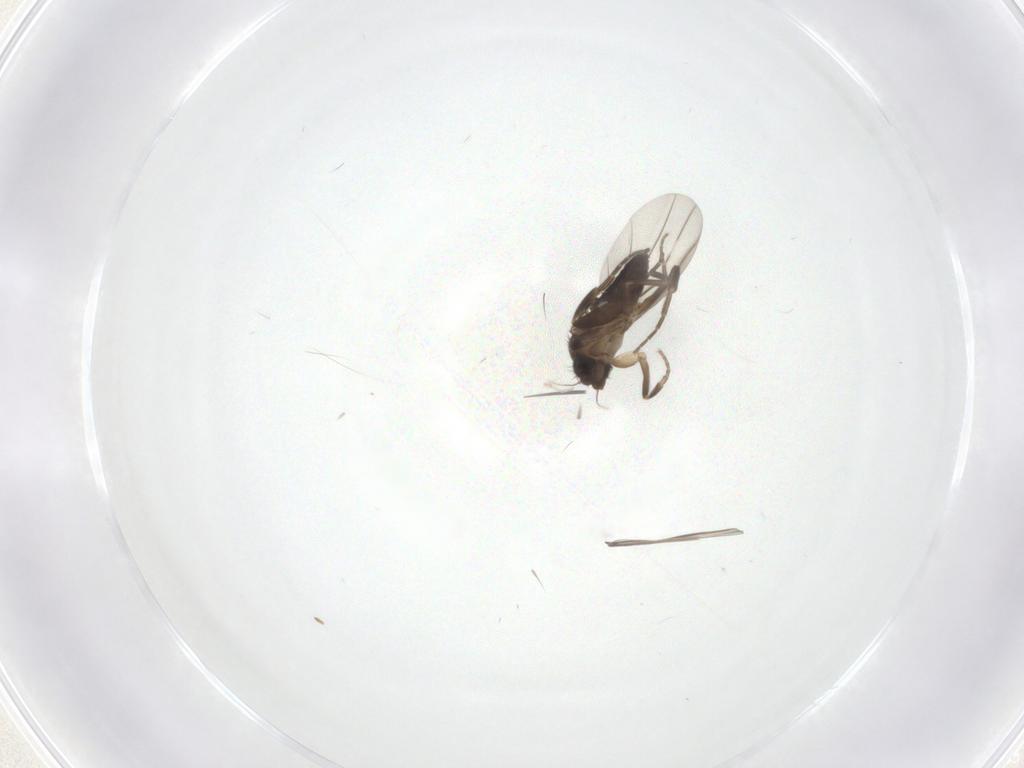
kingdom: Animalia
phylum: Arthropoda
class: Insecta
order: Diptera
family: Phoridae
